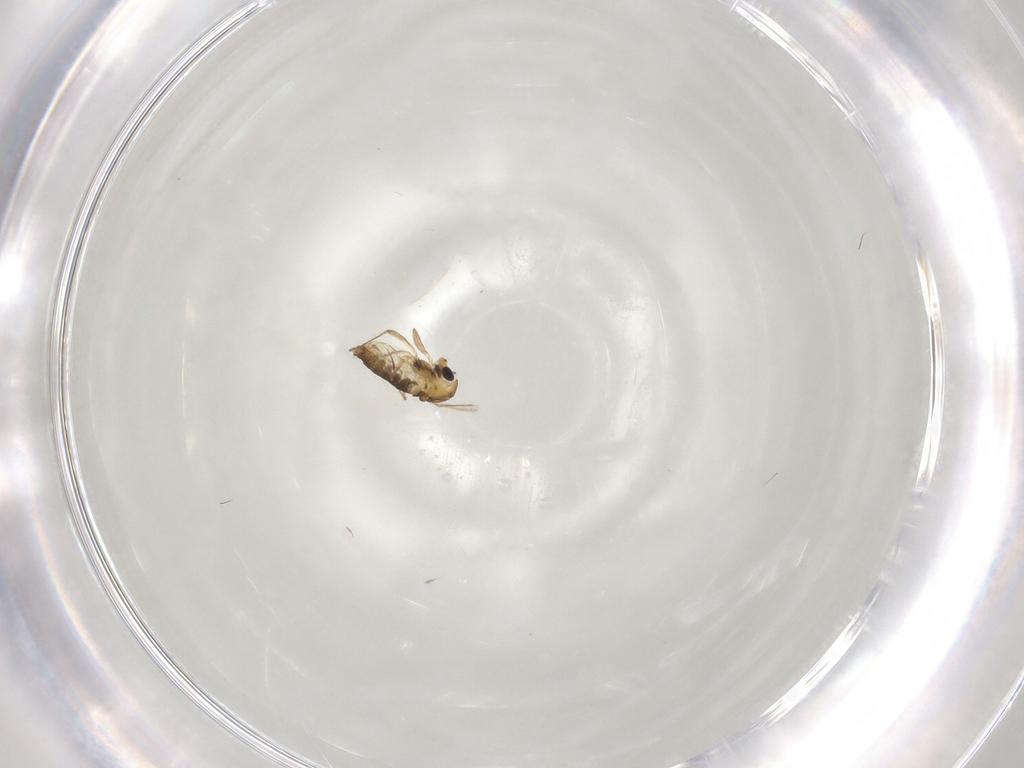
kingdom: Animalia
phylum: Arthropoda
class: Insecta
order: Diptera
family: Chironomidae
